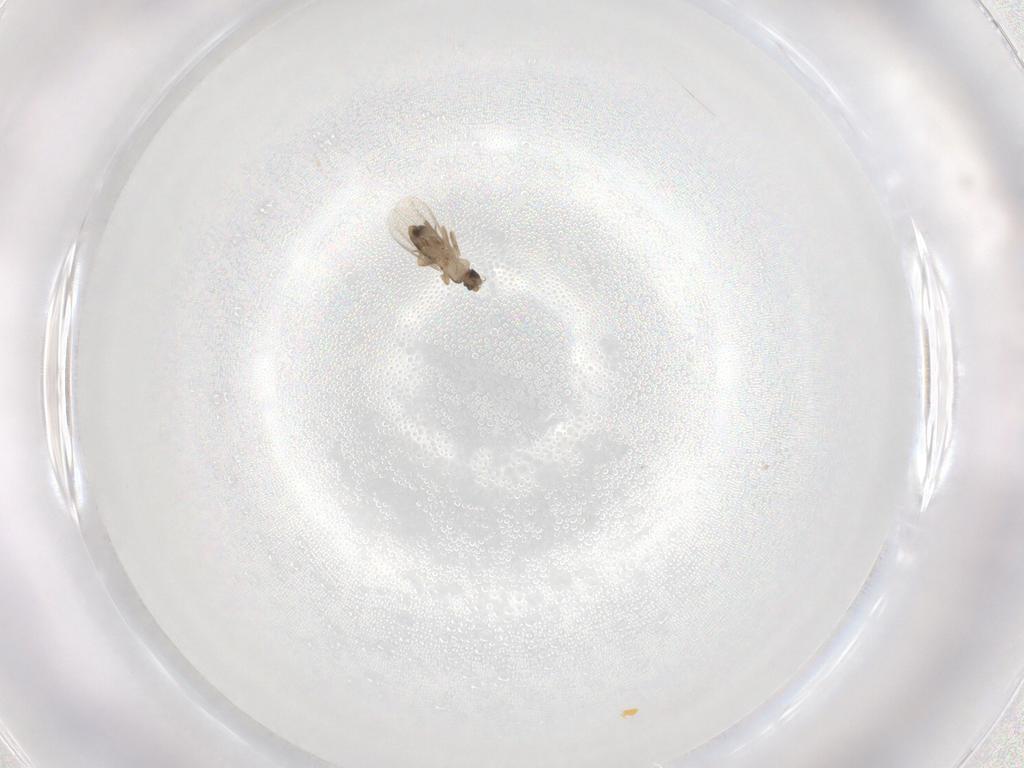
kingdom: Animalia
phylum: Arthropoda
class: Insecta
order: Diptera
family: Phoridae
